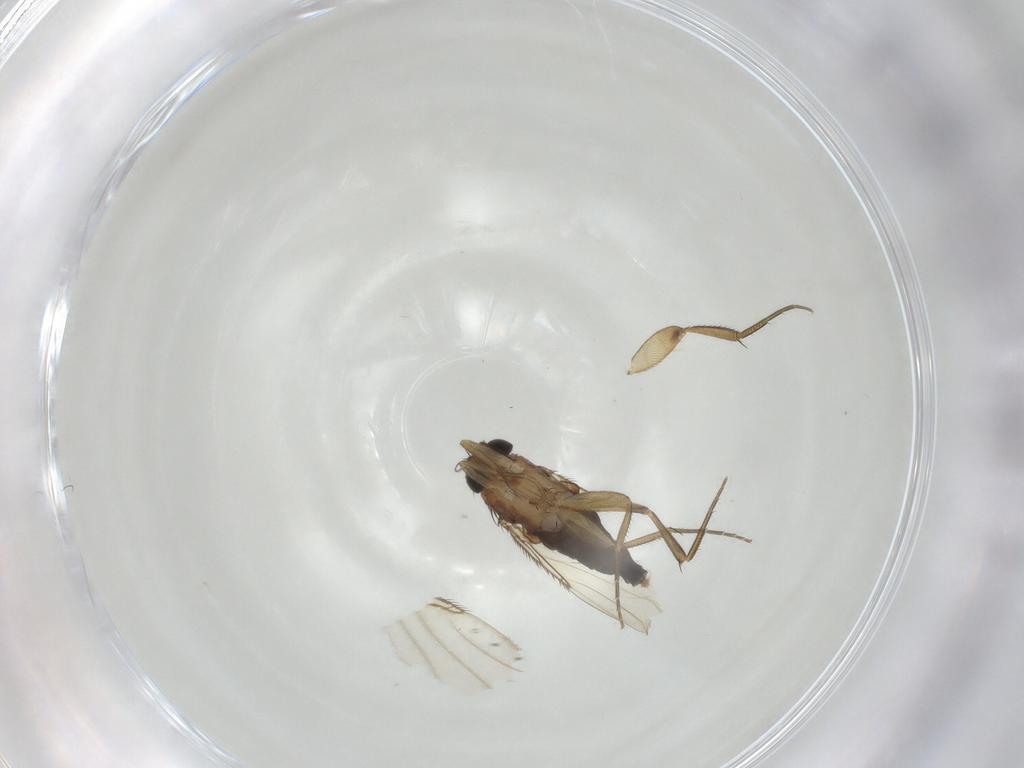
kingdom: Animalia
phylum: Arthropoda
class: Insecta
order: Diptera
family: Phoridae
